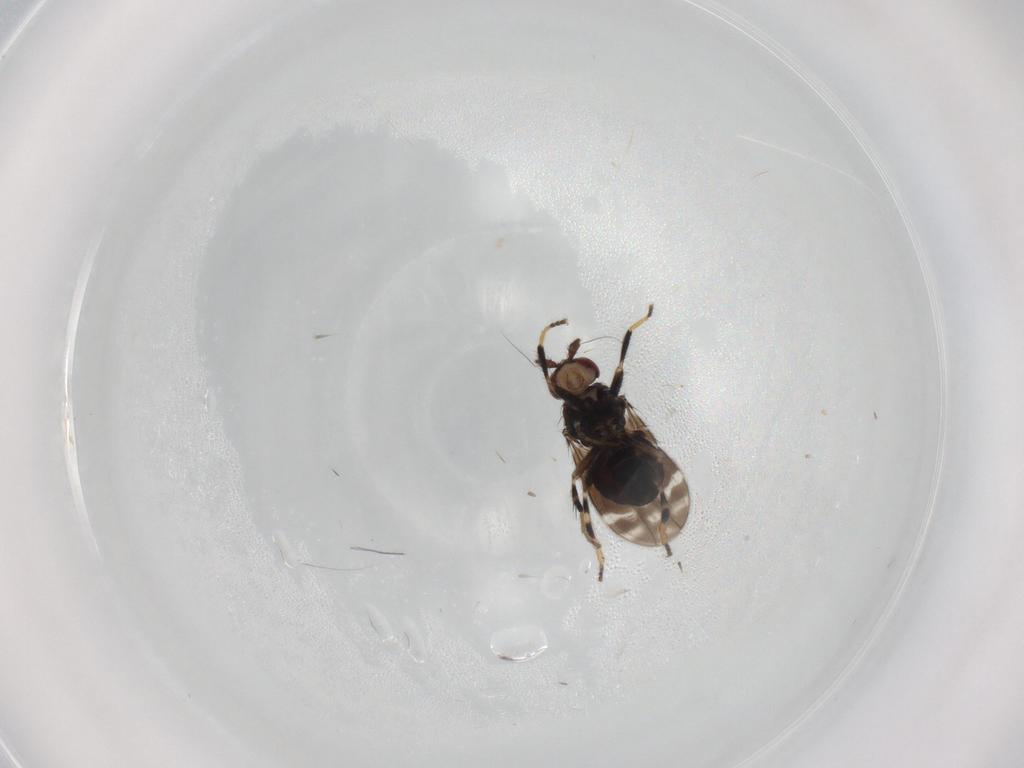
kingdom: Animalia
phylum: Arthropoda
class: Insecta
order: Diptera
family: Sphaeroceridae
